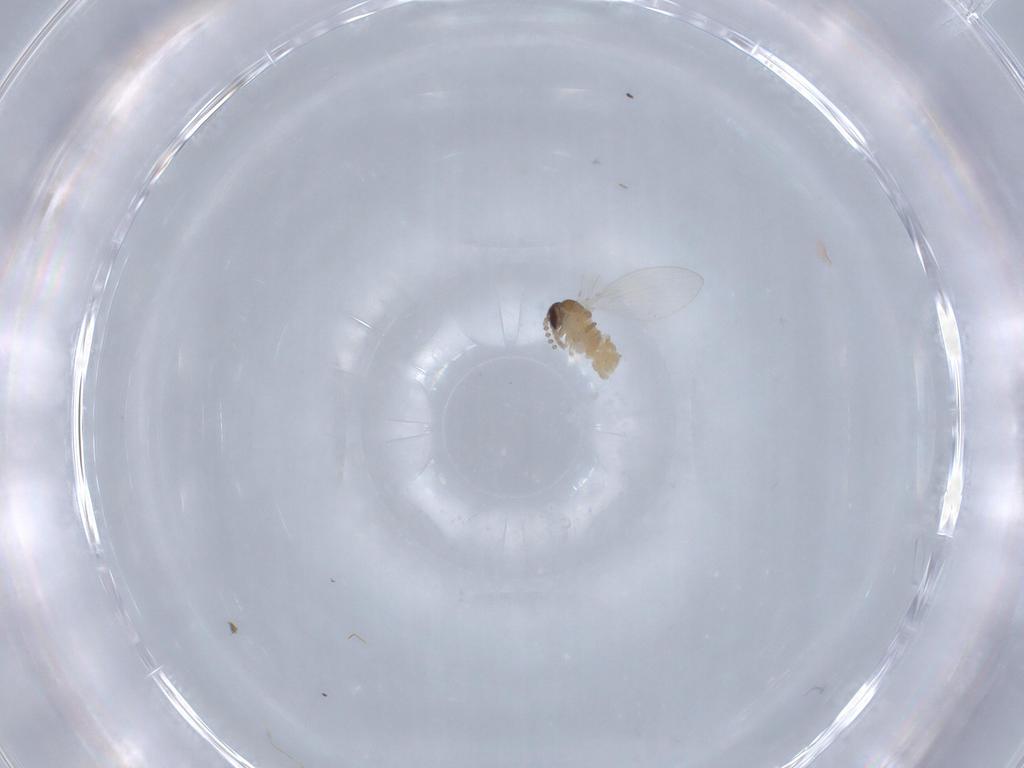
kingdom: Animalia
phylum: Arthropoda
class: Insecta
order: Diptera
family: Psychodidae
